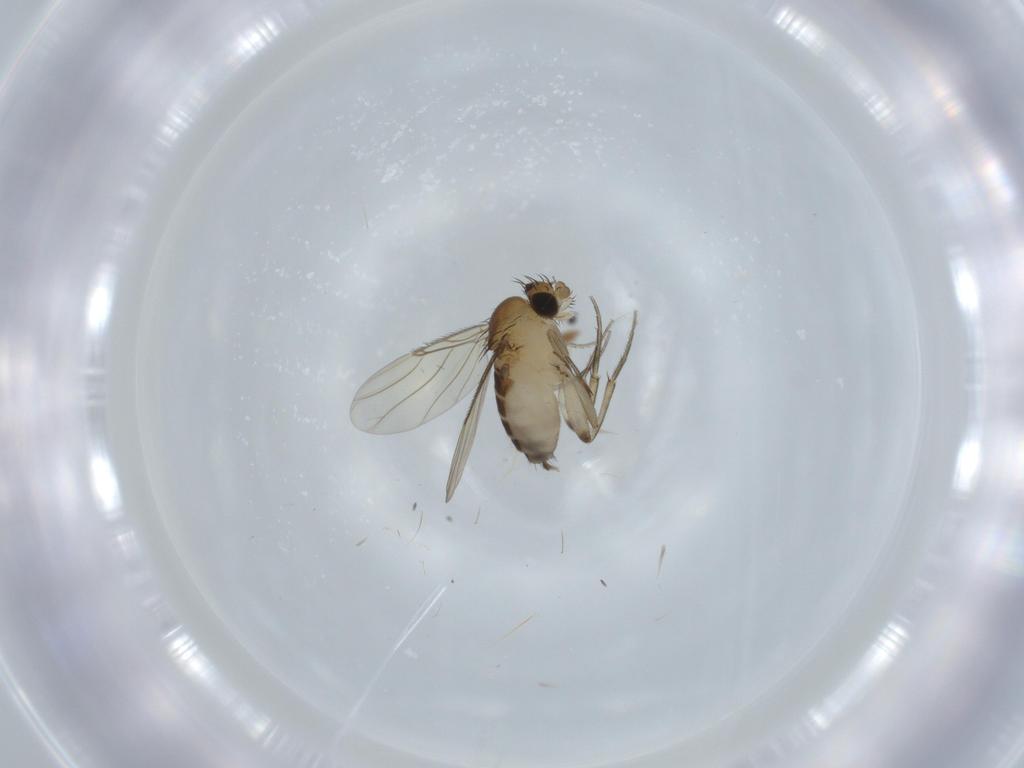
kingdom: Animalia
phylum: Arthropoda
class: Insecta
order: Diptera
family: Phoridae
